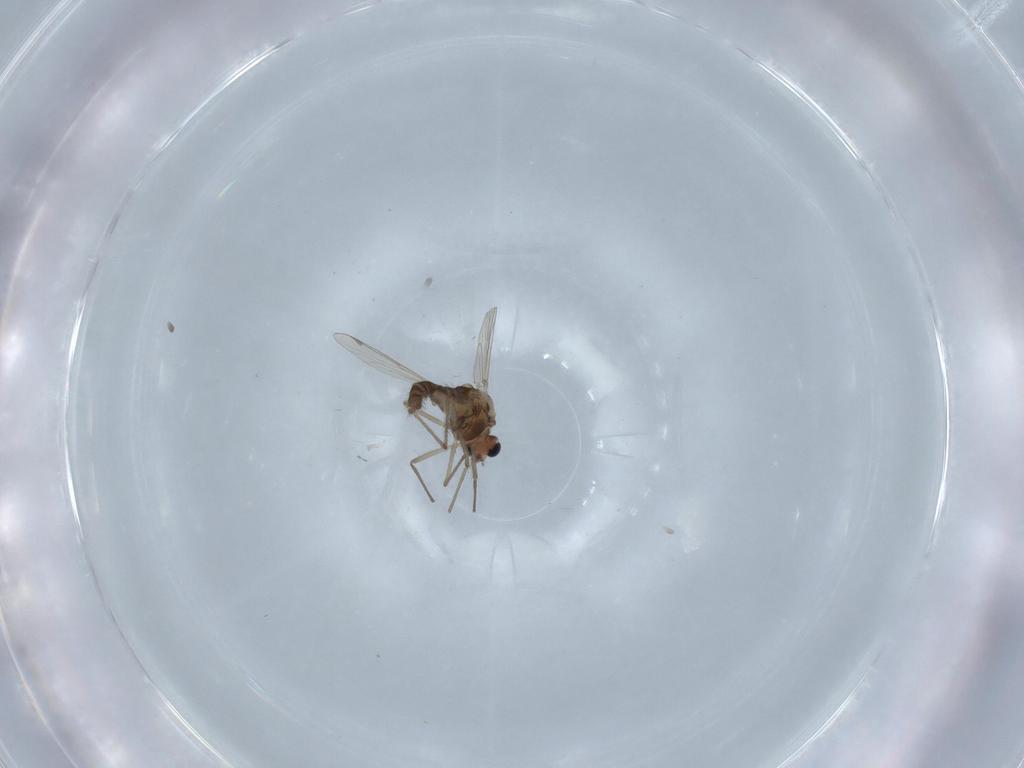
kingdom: Animalia
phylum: Arthropoda
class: Insecta
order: Diptera
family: Chironomidae
